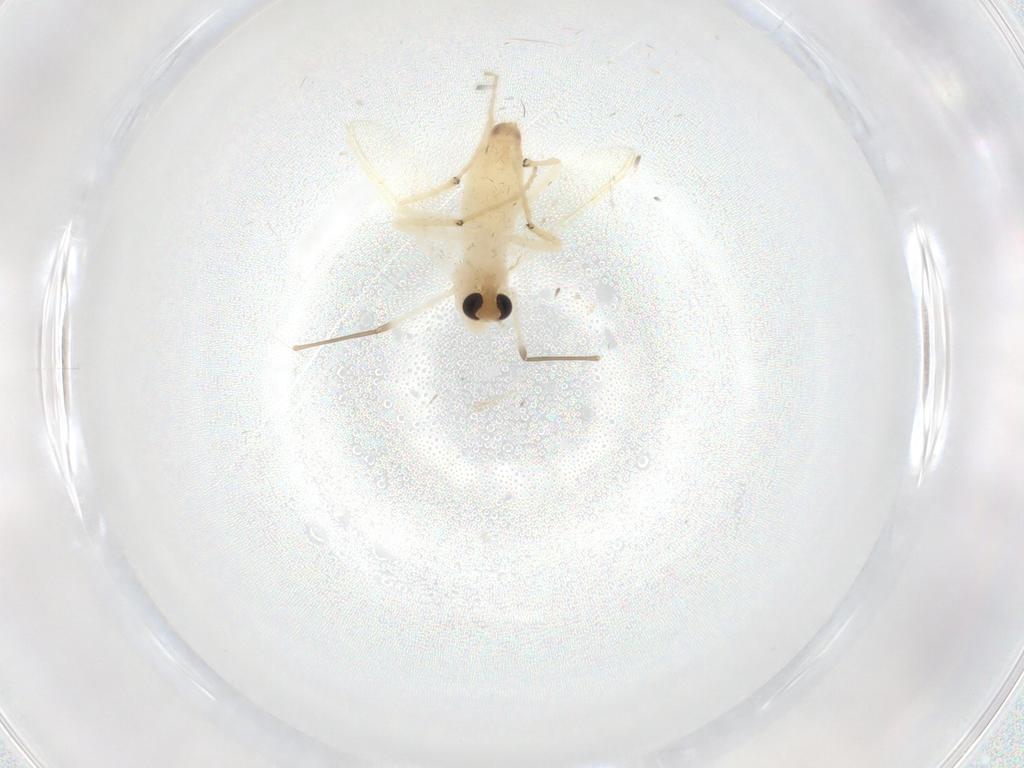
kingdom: Animalia
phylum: Arthropoda
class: Insecta
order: Diptera
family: Chironomidae
